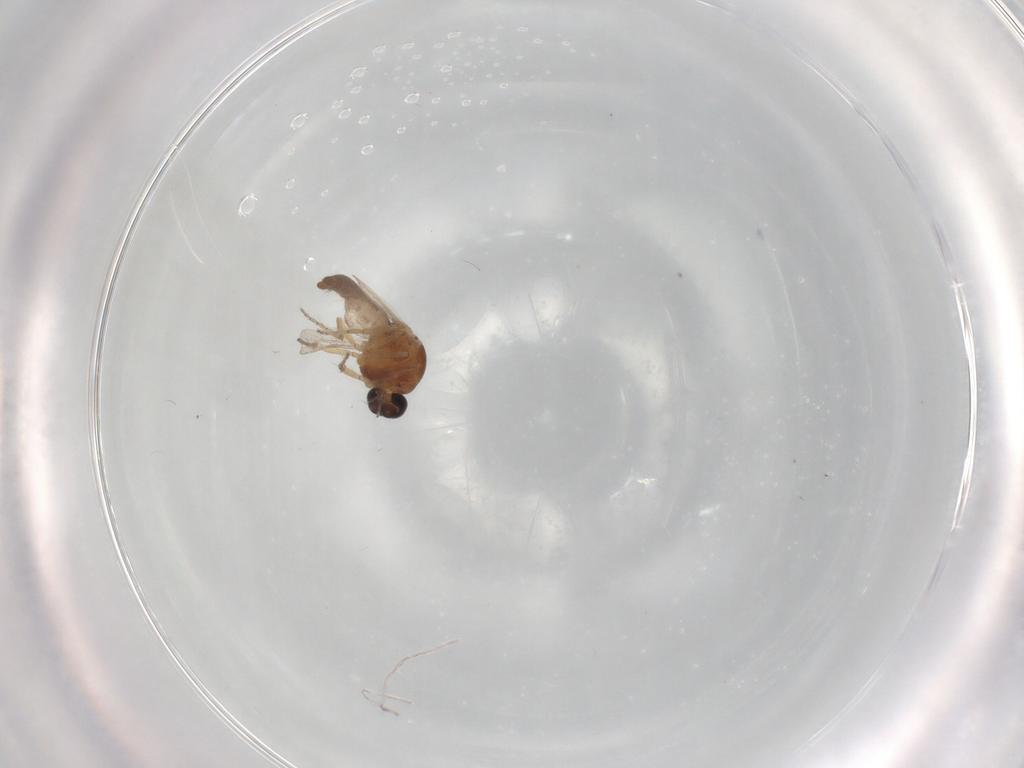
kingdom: Animalia
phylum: Arthropoda
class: Insecta
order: Diptera
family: Ceratopogonidae
